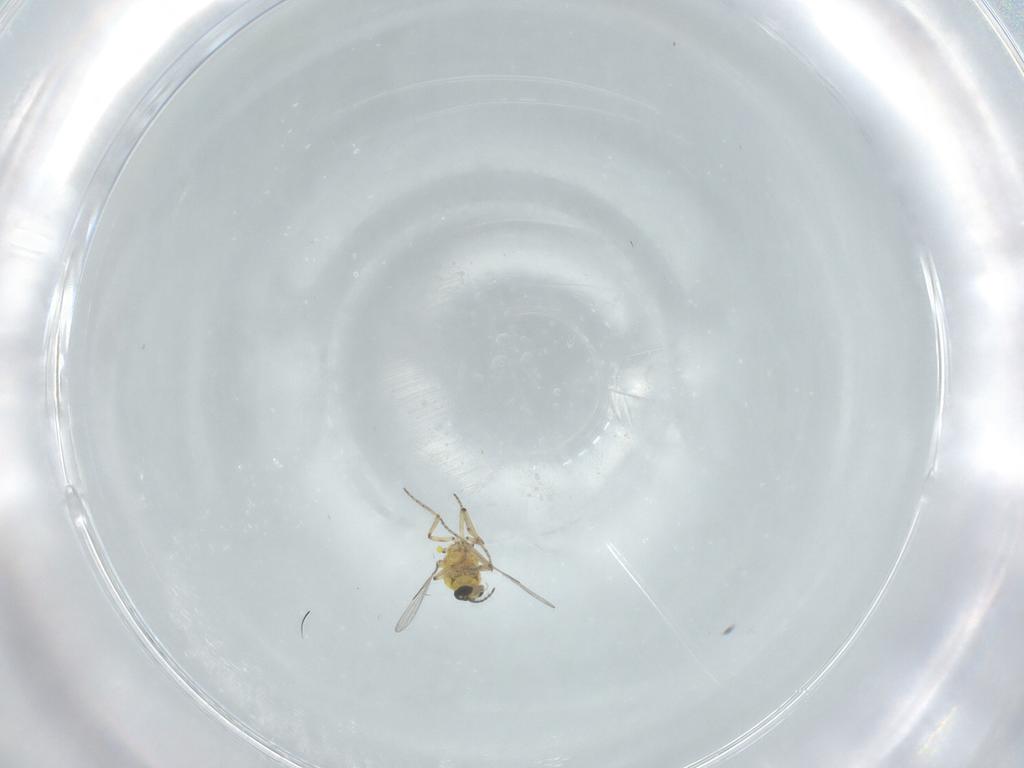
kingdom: Animalia
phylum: Arthropoda
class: Insecta
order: Diptera
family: Ceratopogonidae
